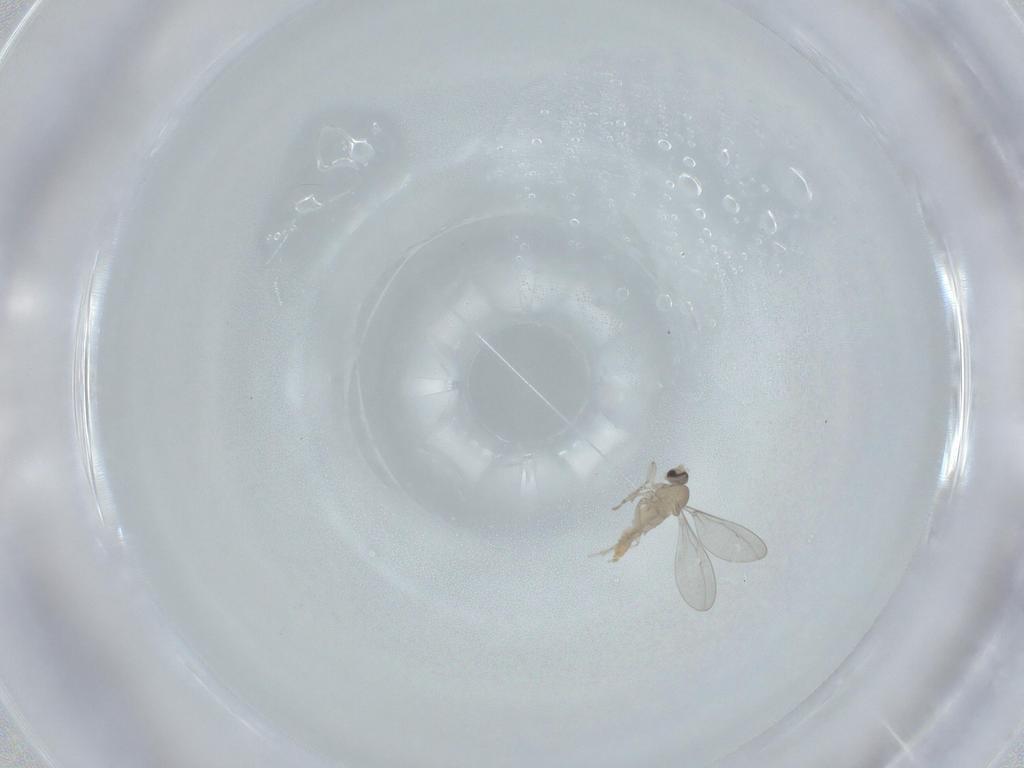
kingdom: Animalia
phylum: Arthropoda
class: Insecta
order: Diptera
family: Cecidomyiidae
